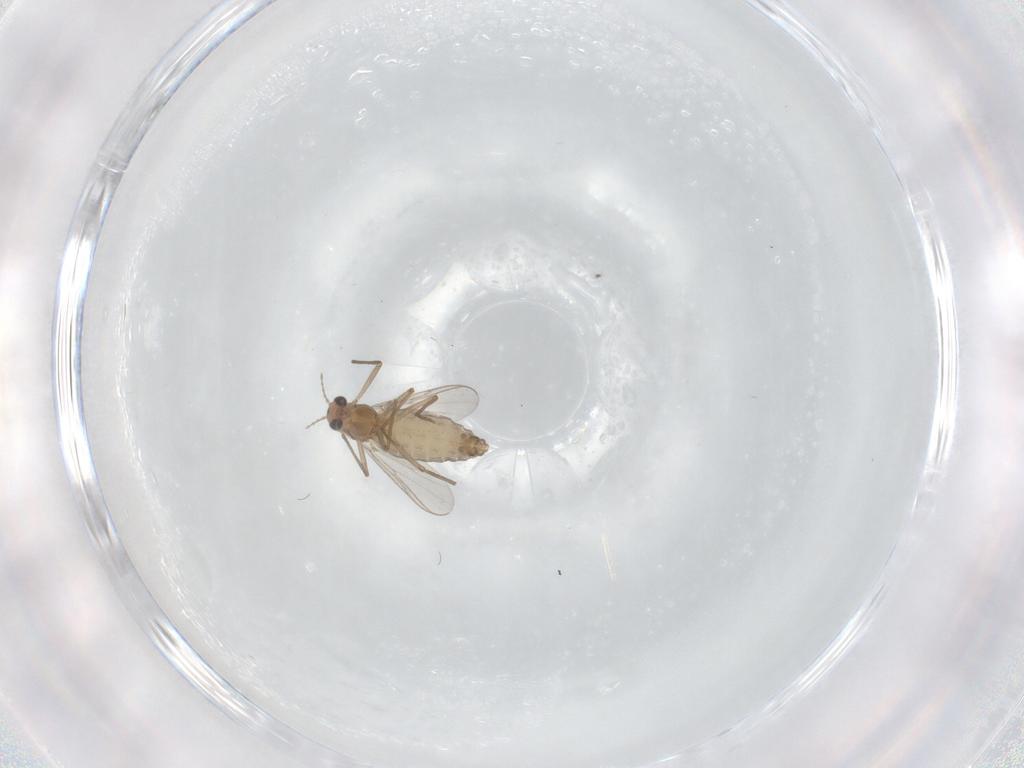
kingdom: Animalia
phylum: Arthropoda
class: Insecta
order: Diptera
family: Chironomidae
